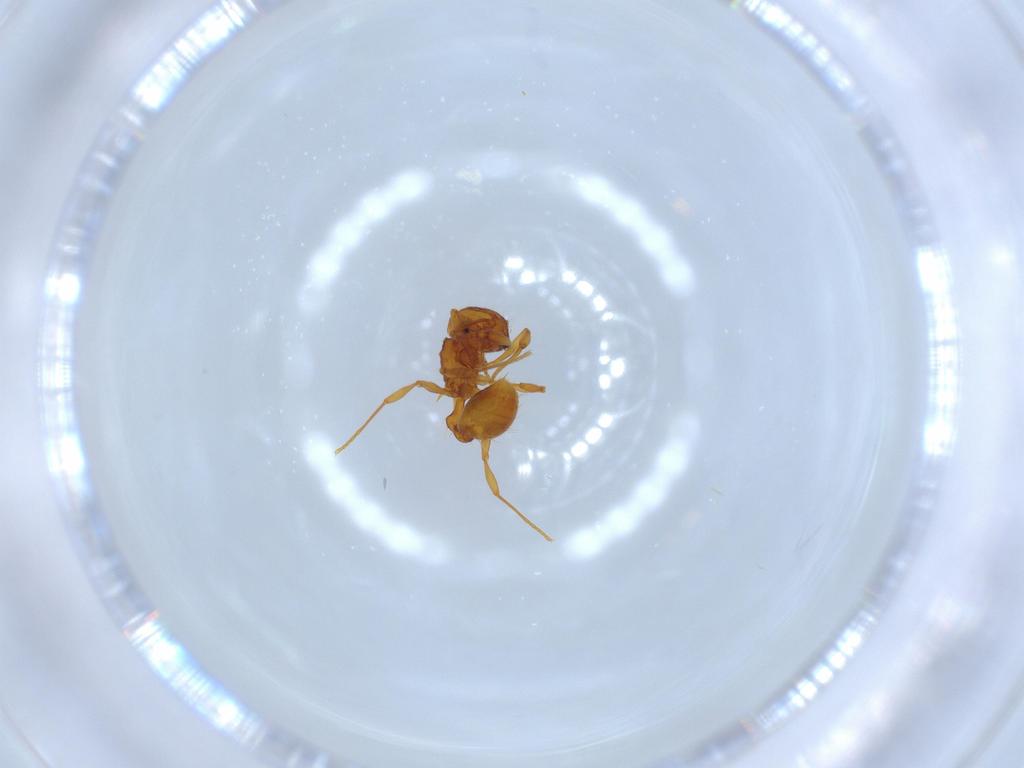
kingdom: Animalia
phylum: Arthropoda
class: Insecta
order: Hymenoptera
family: Formicidae
